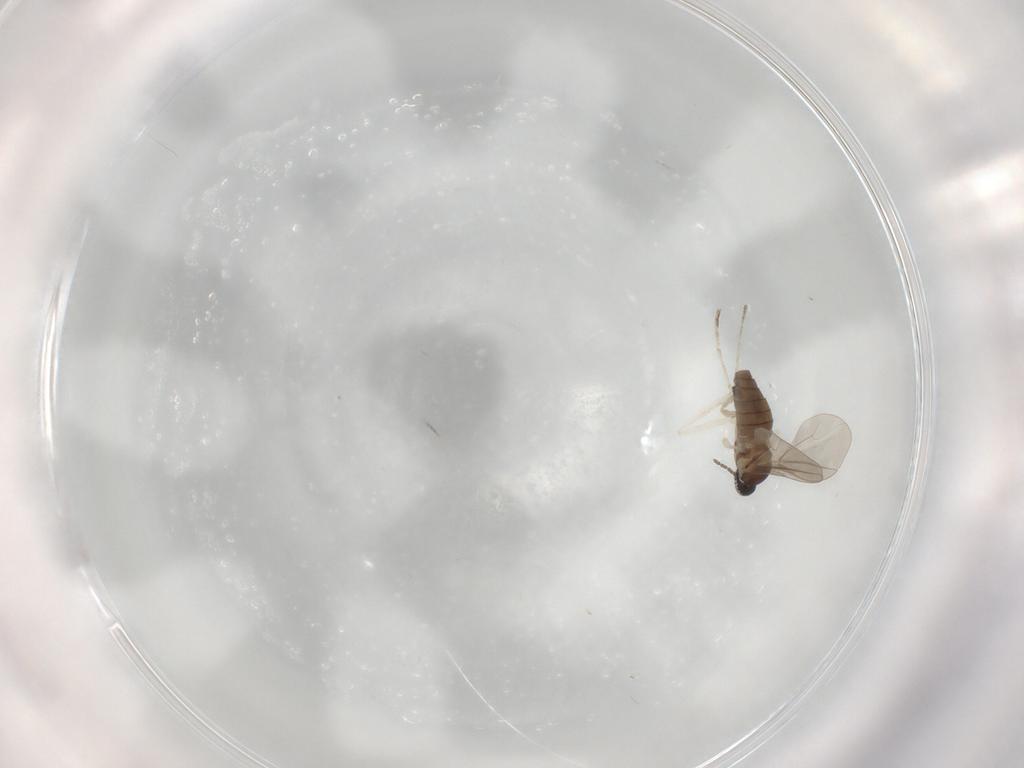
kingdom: Animalia
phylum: Arthropoda
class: Insecta
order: Diptera
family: Cecidomyiidae
